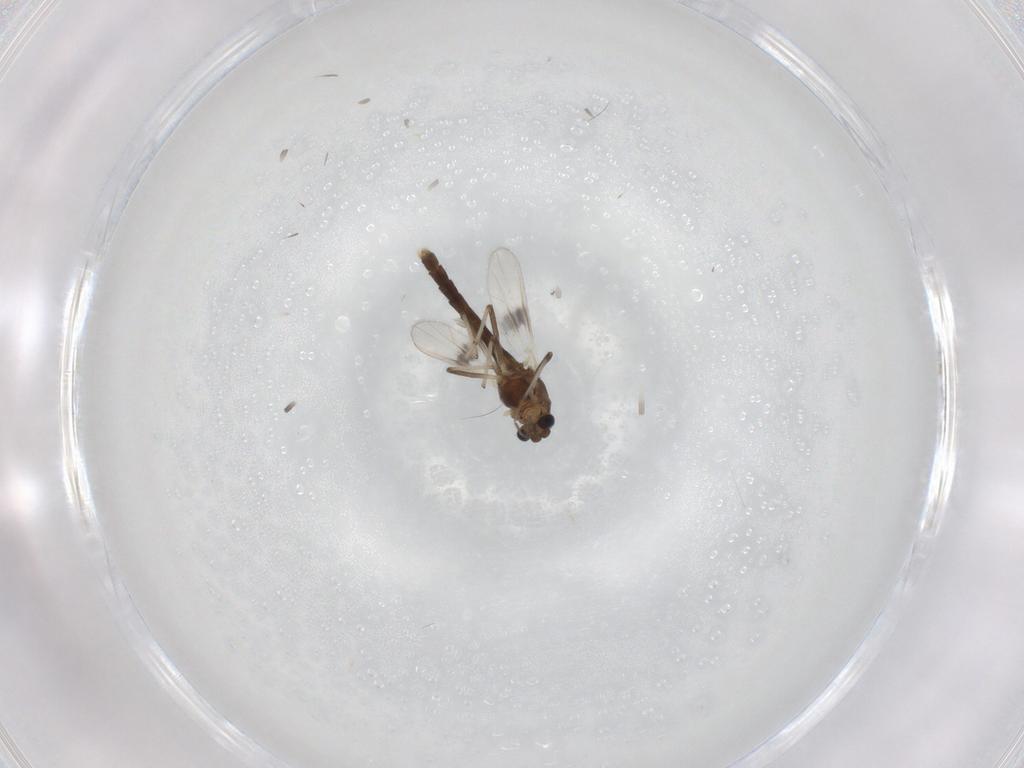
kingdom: Animalia
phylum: Arthropoda
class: Insecta
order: Diptera
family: Chironomidae
